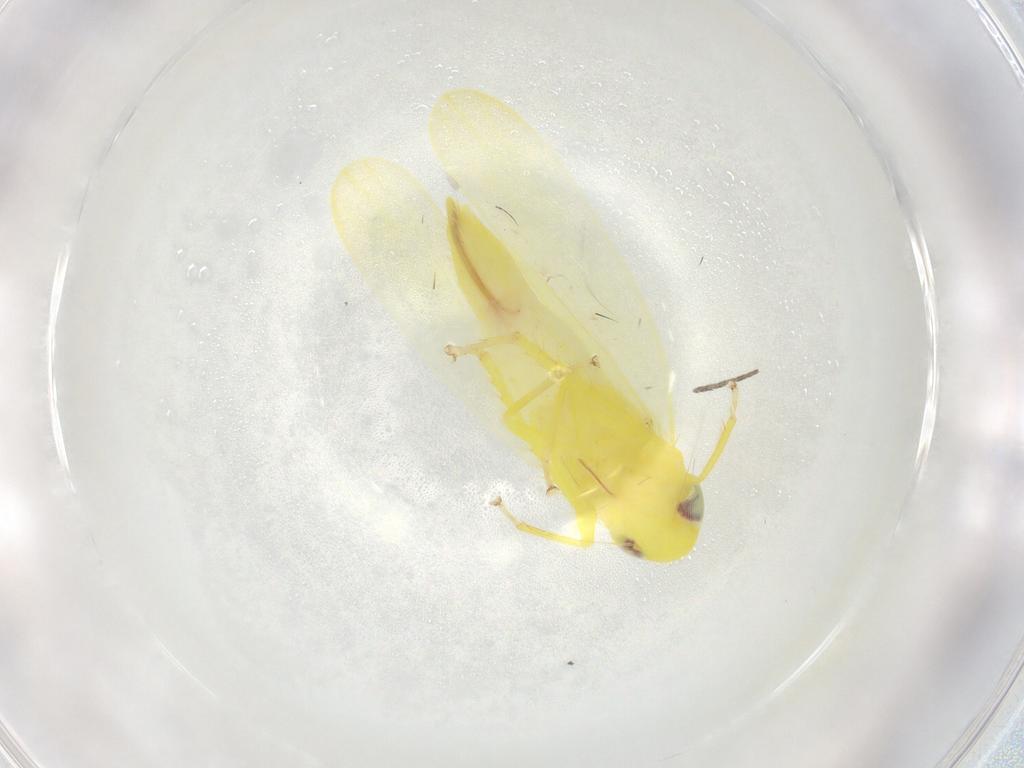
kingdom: Animalia
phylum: Arthropoda
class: Insecta
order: Hemiptera
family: Cicadellidae
